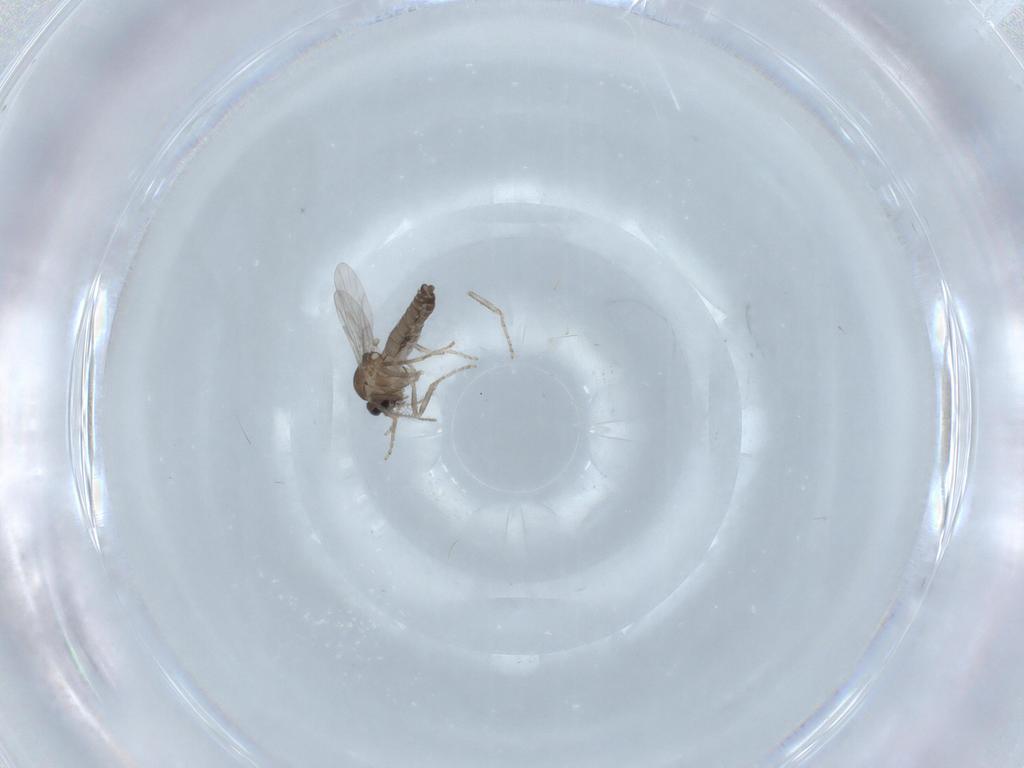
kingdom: Animalia
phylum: Arthropoda
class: Insecta
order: Diptera
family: Ceratopogonidae
